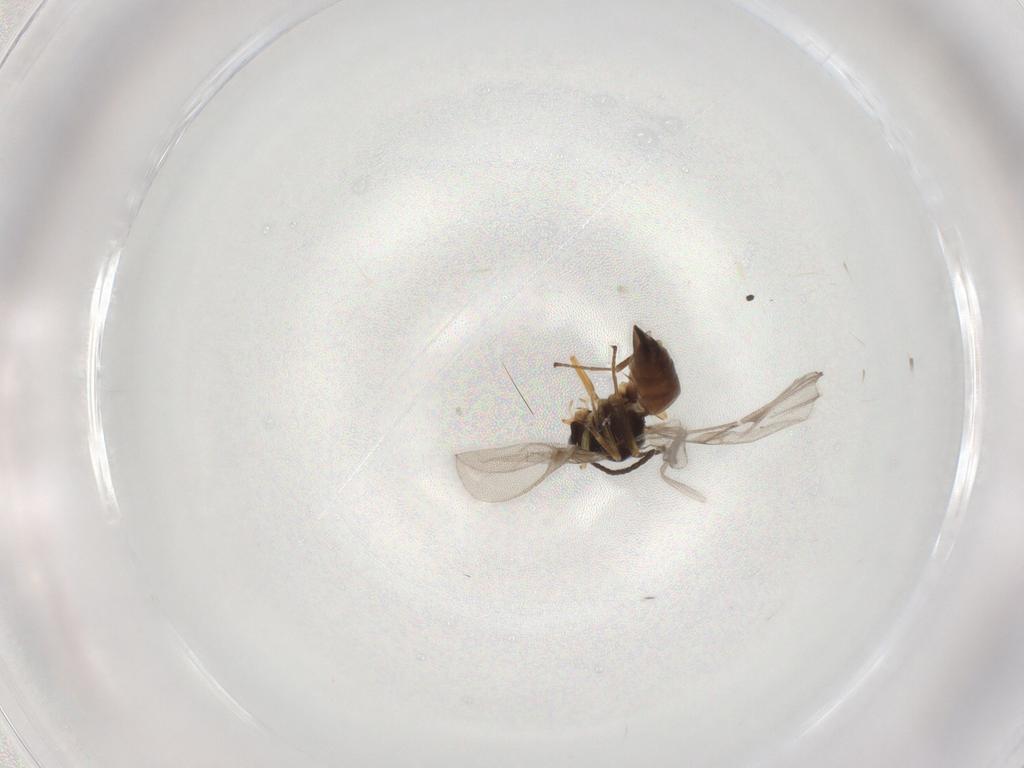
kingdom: Animalia
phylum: Arthropoda
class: Insecta
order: Hymenoptera
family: Braconidae
